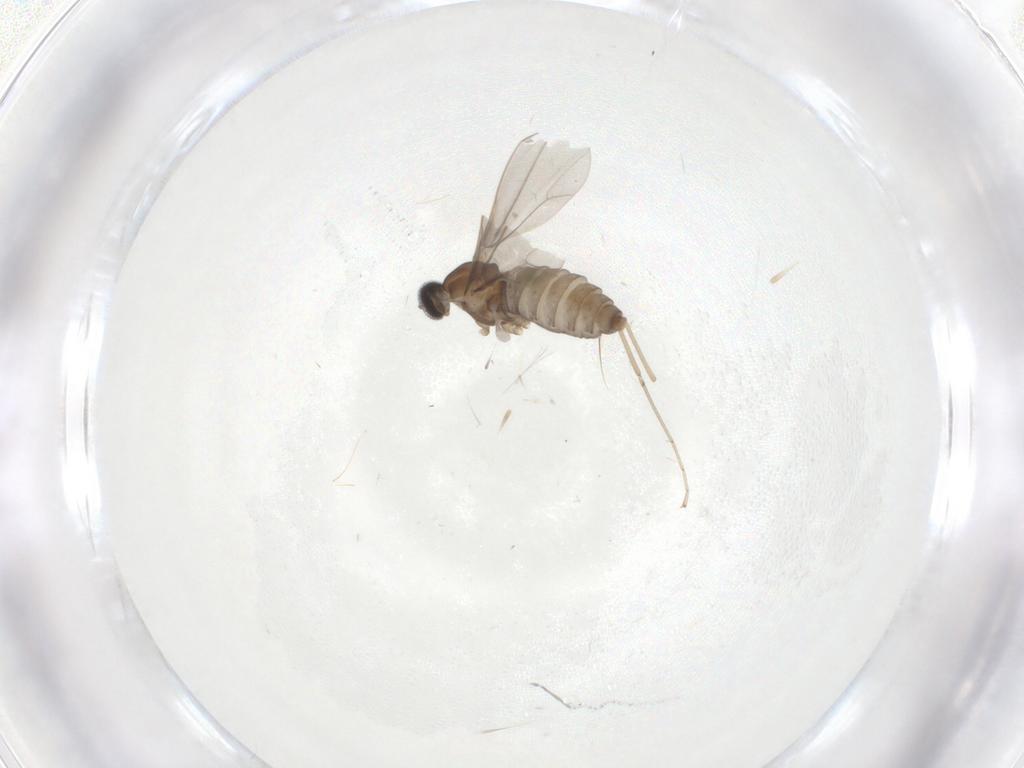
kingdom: Animalia
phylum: Arthropoda
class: Insecta
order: Diptera
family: Cecidomyiidae
